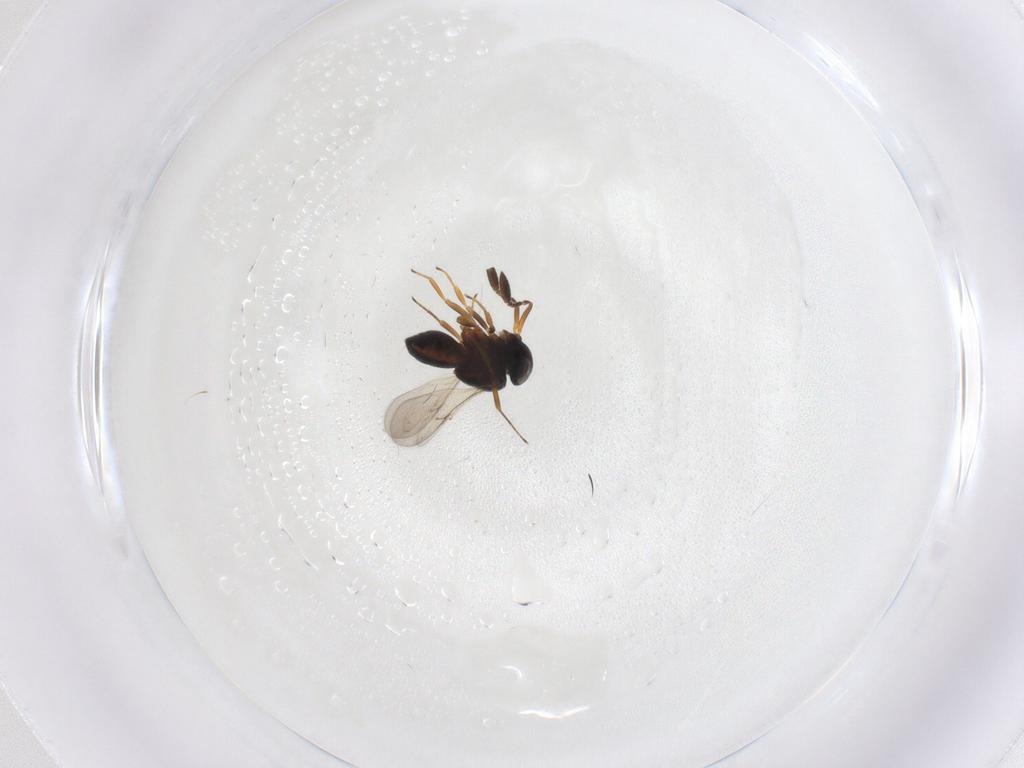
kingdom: Animalia
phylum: Arthropoda
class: Insecta
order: Hymenoptera
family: Scelionidae
